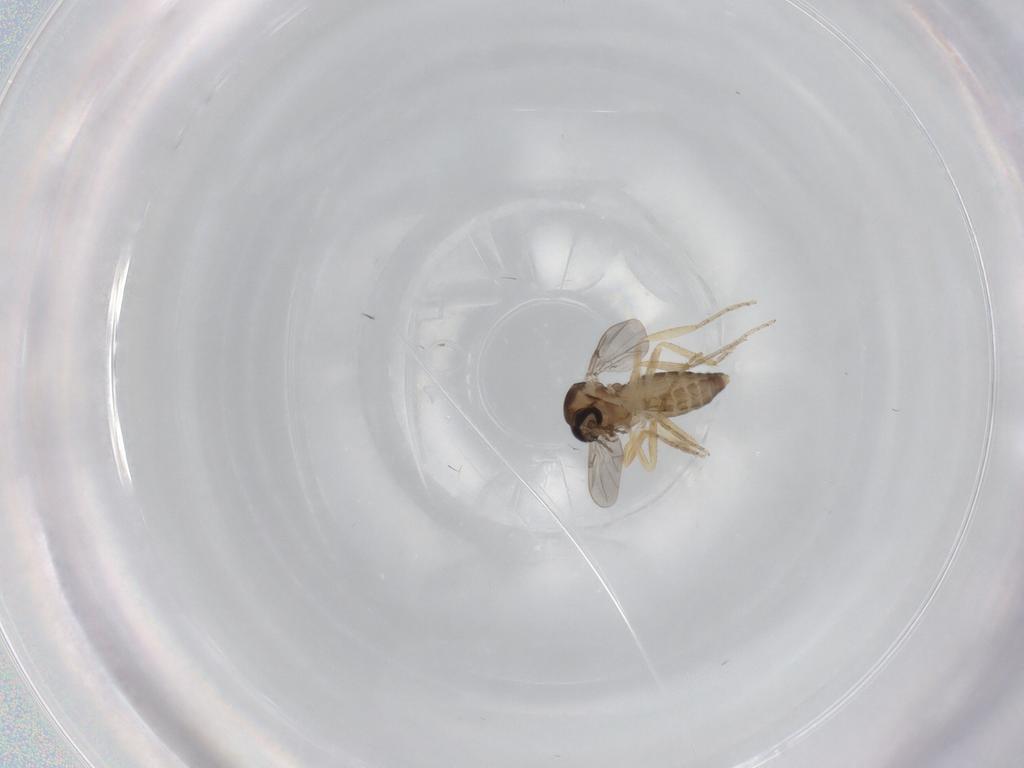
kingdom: Animalia
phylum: Arthropoda
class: Insecta
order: Diptera
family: Ceratopogonidae
